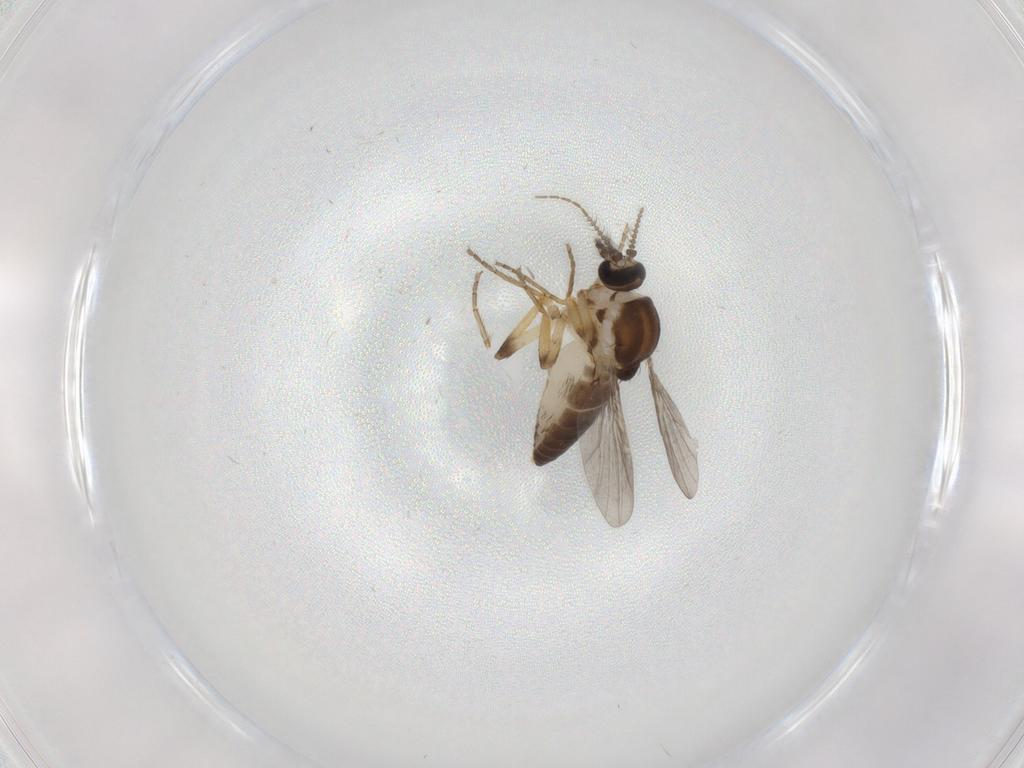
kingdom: Animalia
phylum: Arthropoda
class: Insecta
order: Diptera
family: Ceratopogonidae
